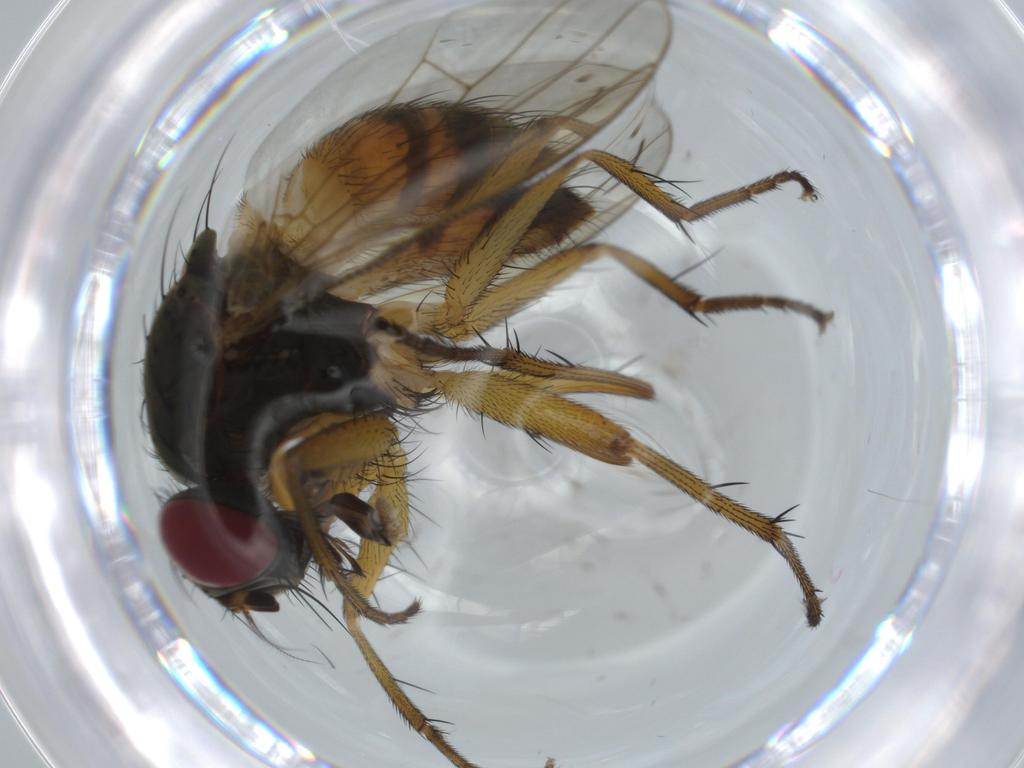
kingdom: Animalia
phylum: Arthropoda
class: Insecta
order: Diptera
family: Muscidae
